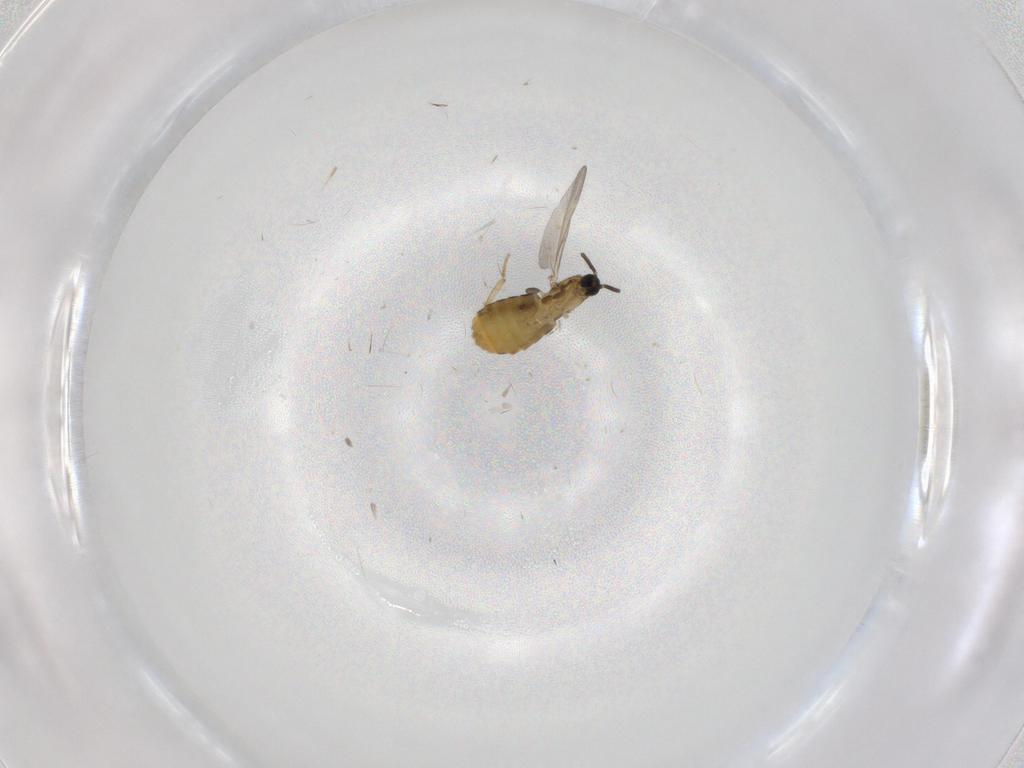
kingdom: Animalia
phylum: Arthropoda
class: Insecta
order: Diptera
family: Scatopsidae
